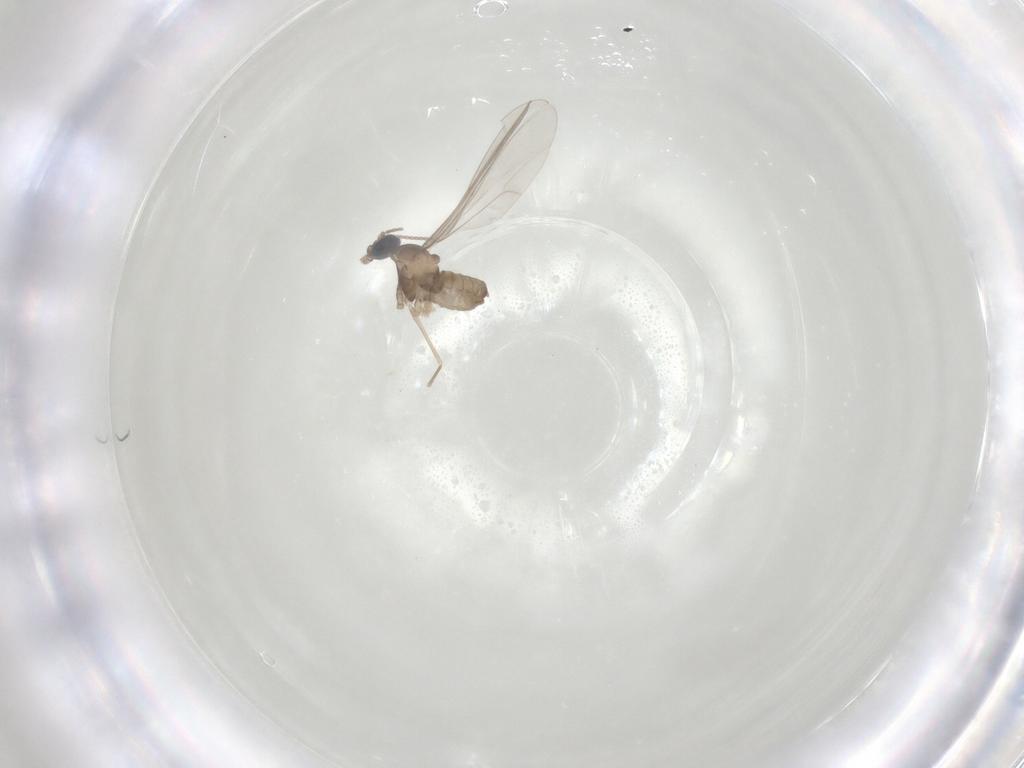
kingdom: Animalia
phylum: Arthropoda
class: Insecta
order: Diptera
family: Cecidomyiidae
